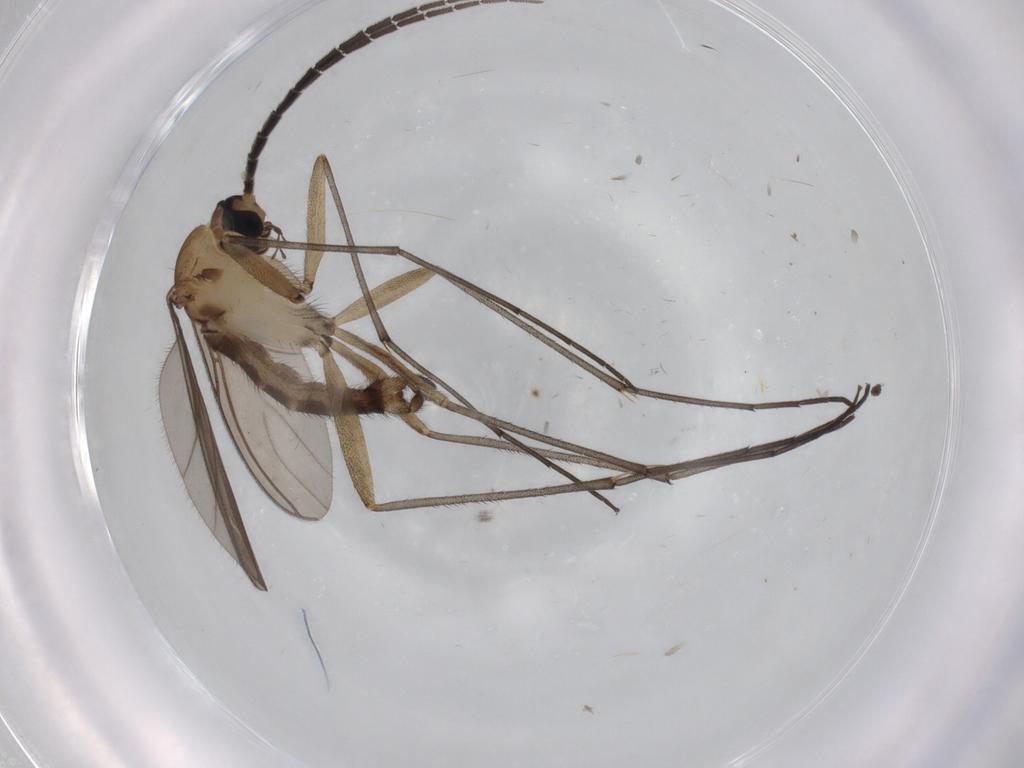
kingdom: Animalia
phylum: Arthropoda
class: Insecta
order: Diptera
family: Sciaridae
